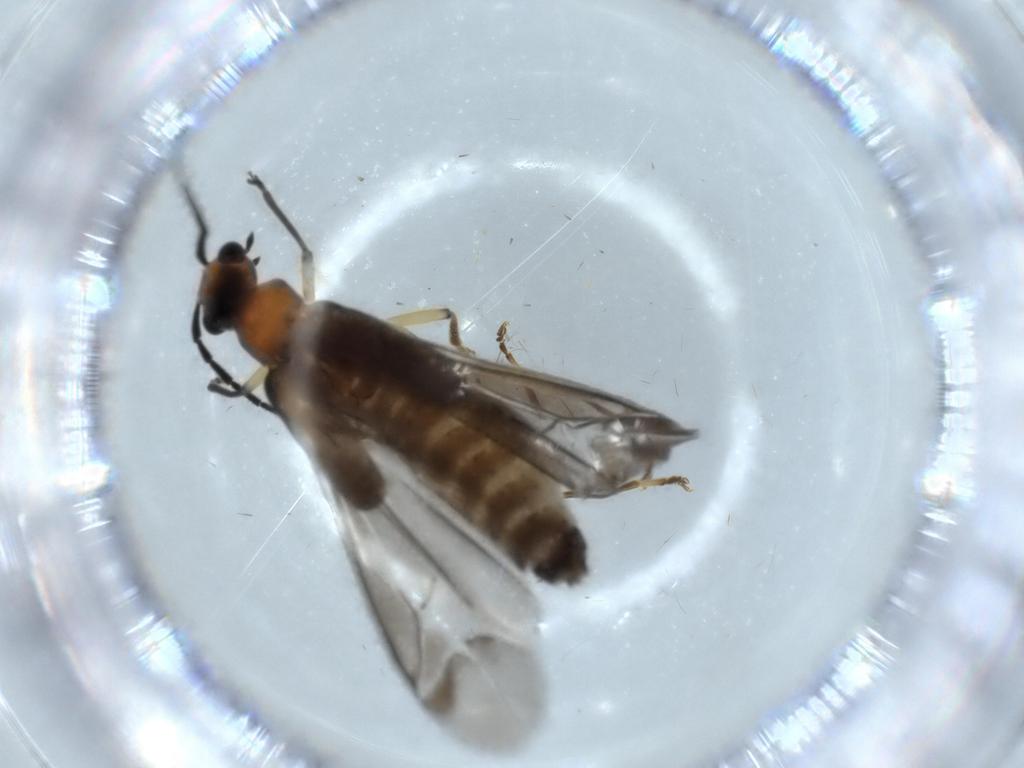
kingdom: Animalia
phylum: Arthropoda
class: Insecta
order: Coleoptera
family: Cantharidae
